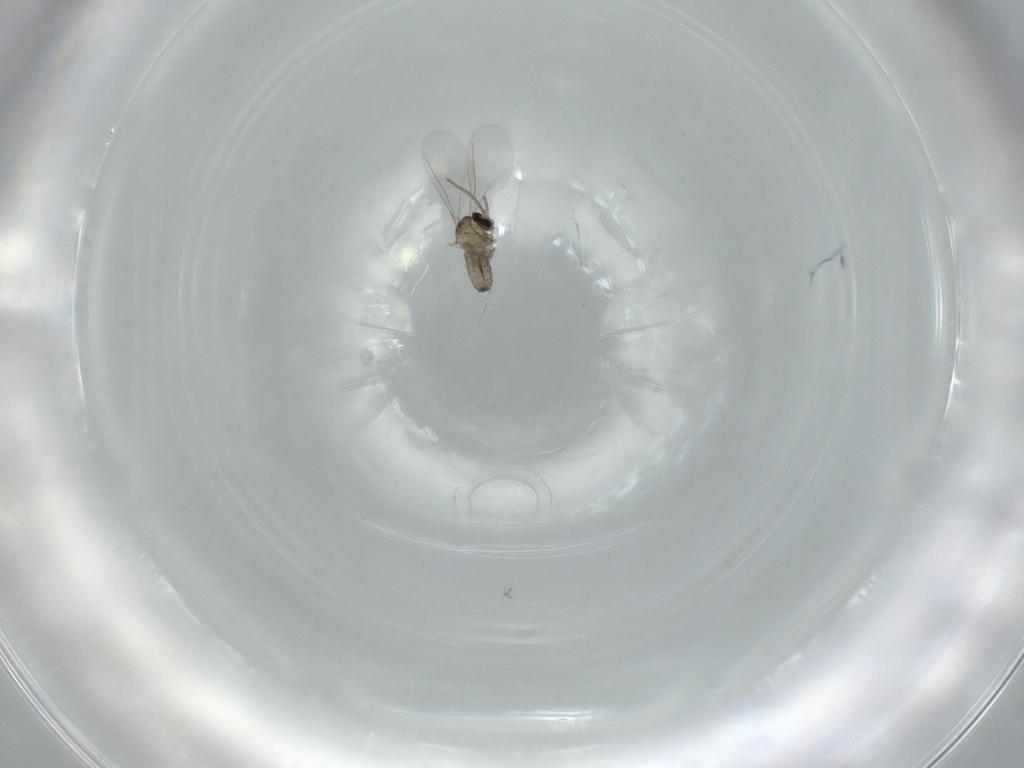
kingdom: Animalia
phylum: Arthropoda
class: Insecta
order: Diptera
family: Cecidomyiidae
